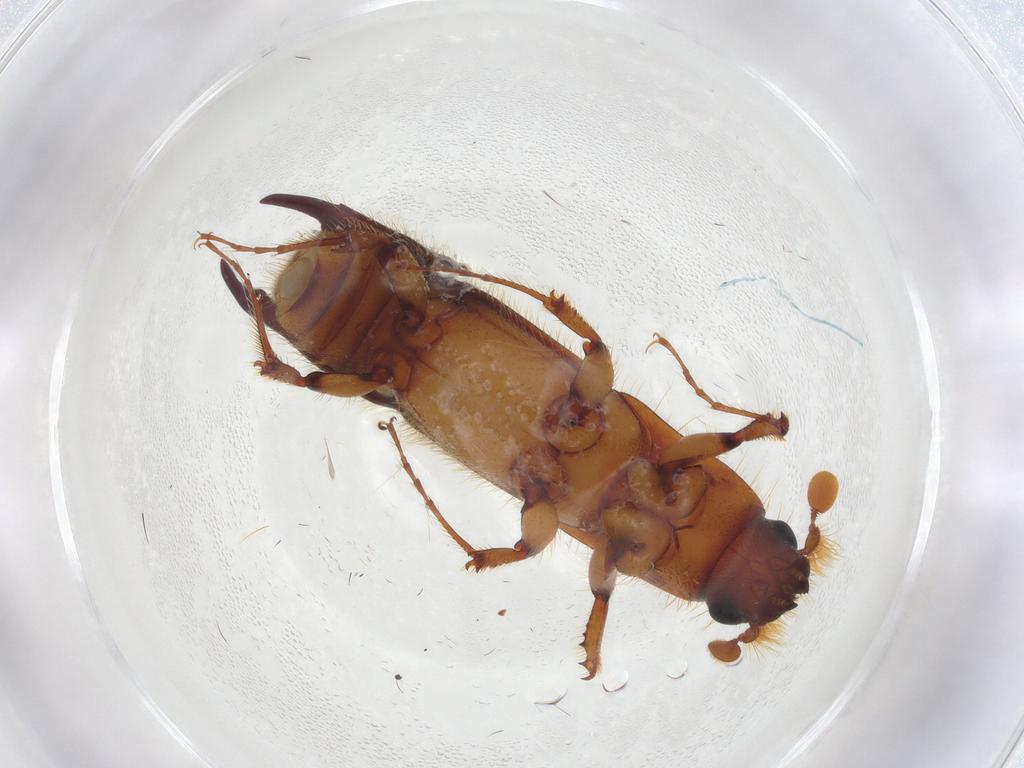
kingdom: Animalia
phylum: Arthropoda
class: Insecta
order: Coleoptera
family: Curculionidae
